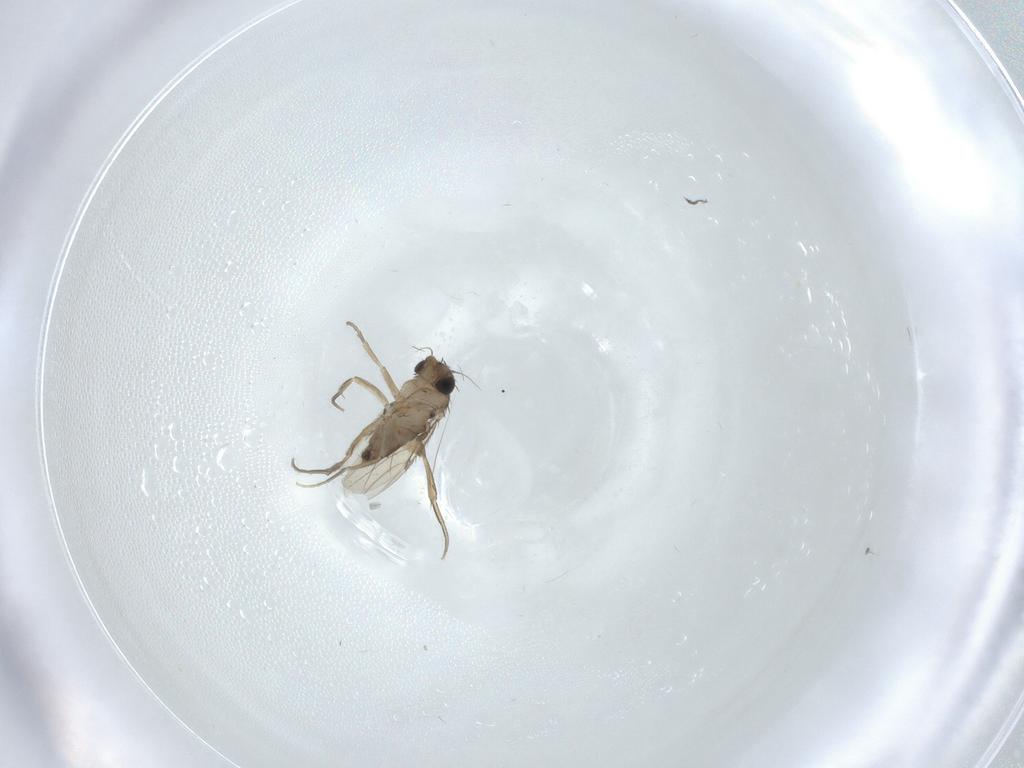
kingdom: Animalia
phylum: Arthropoda
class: Insecta
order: Diptera
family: Phoridae
